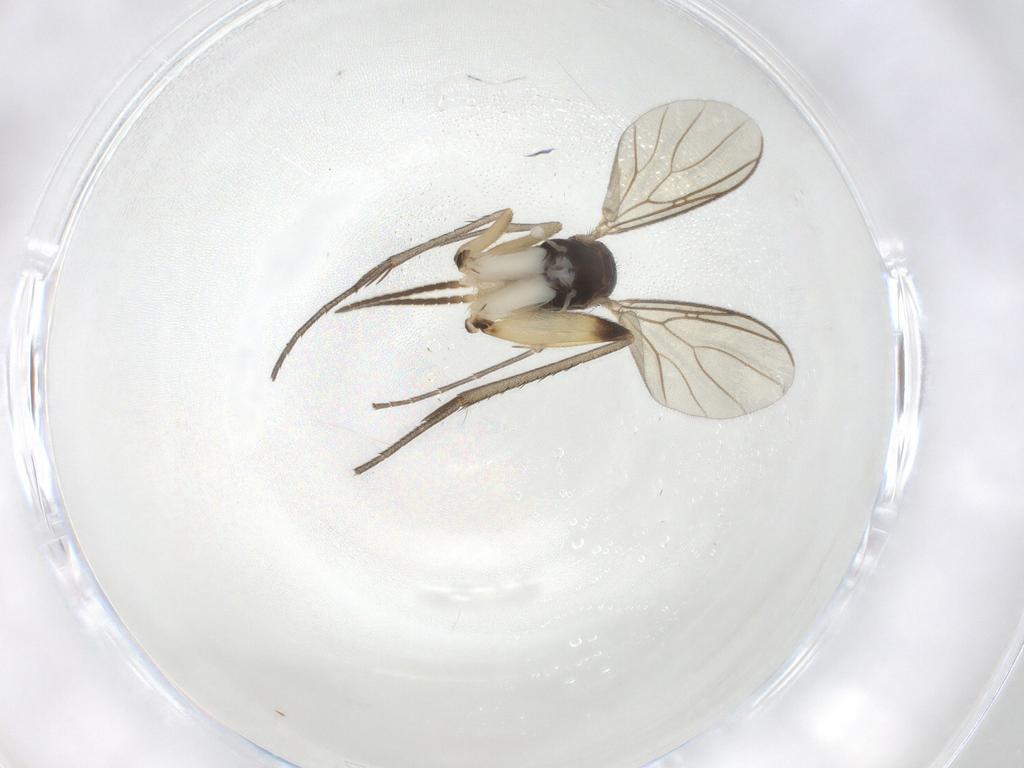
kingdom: Animalia
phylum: Arthropoda
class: Insecta
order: Diptera
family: Mycetophilidae
